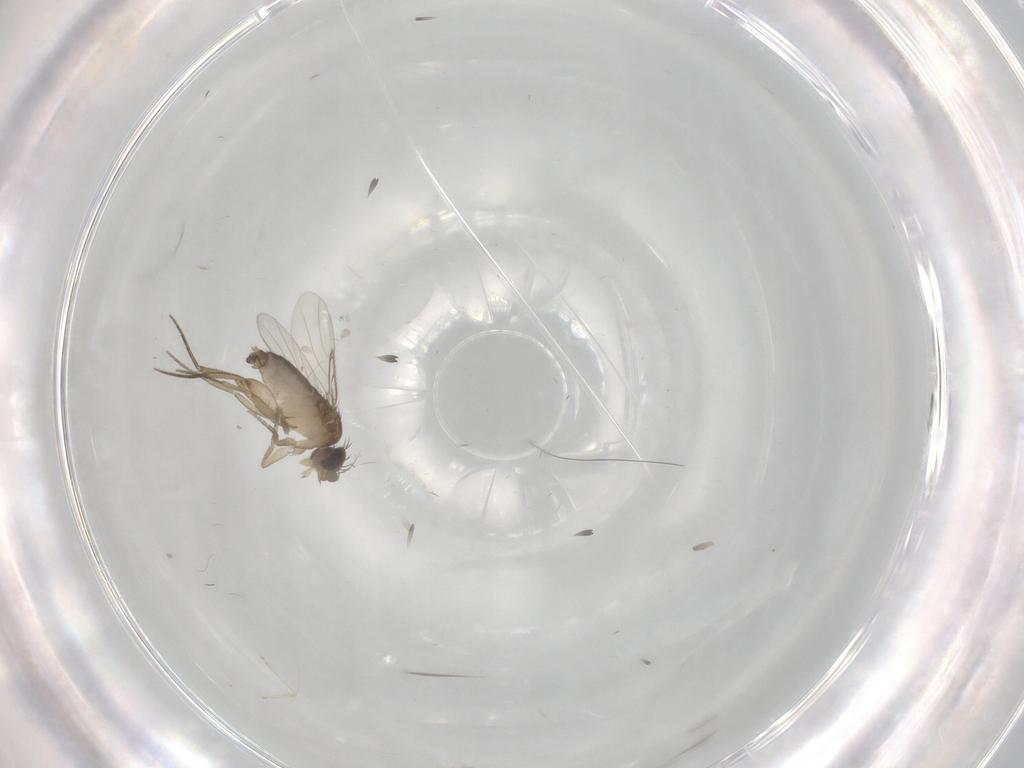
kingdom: Animalia
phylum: Arthropoda
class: Insecta
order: Diptera
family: Phoridae
